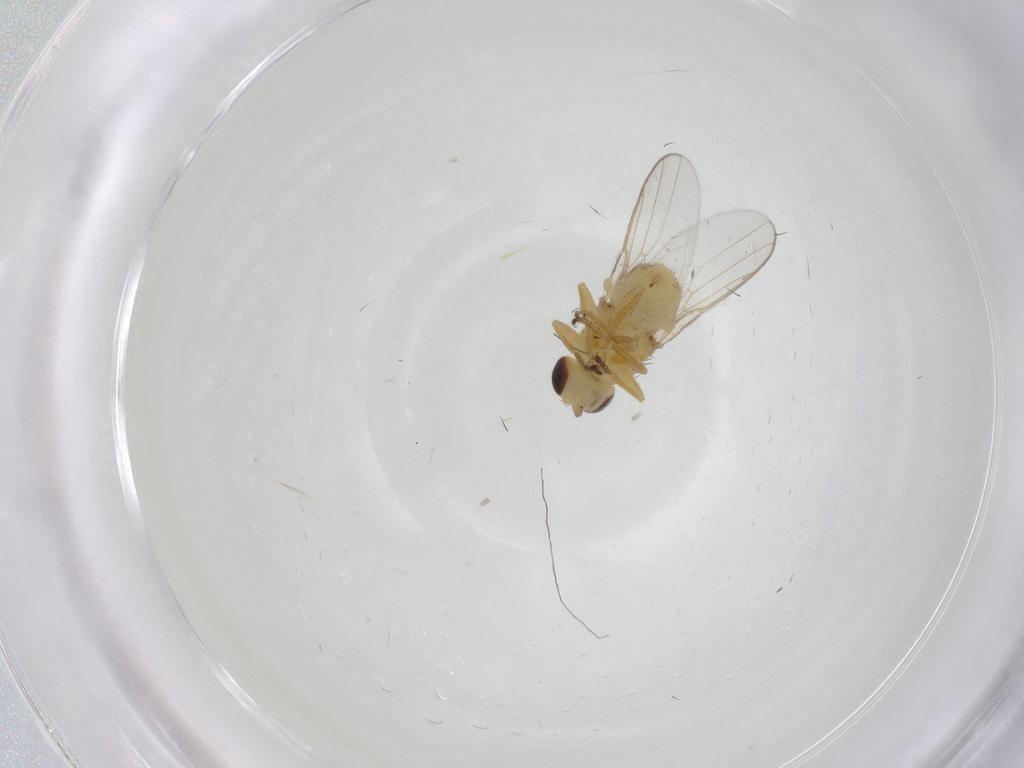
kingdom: Animalia
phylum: Arthropoda
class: Insecta
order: Diptera
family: Chloropidae
